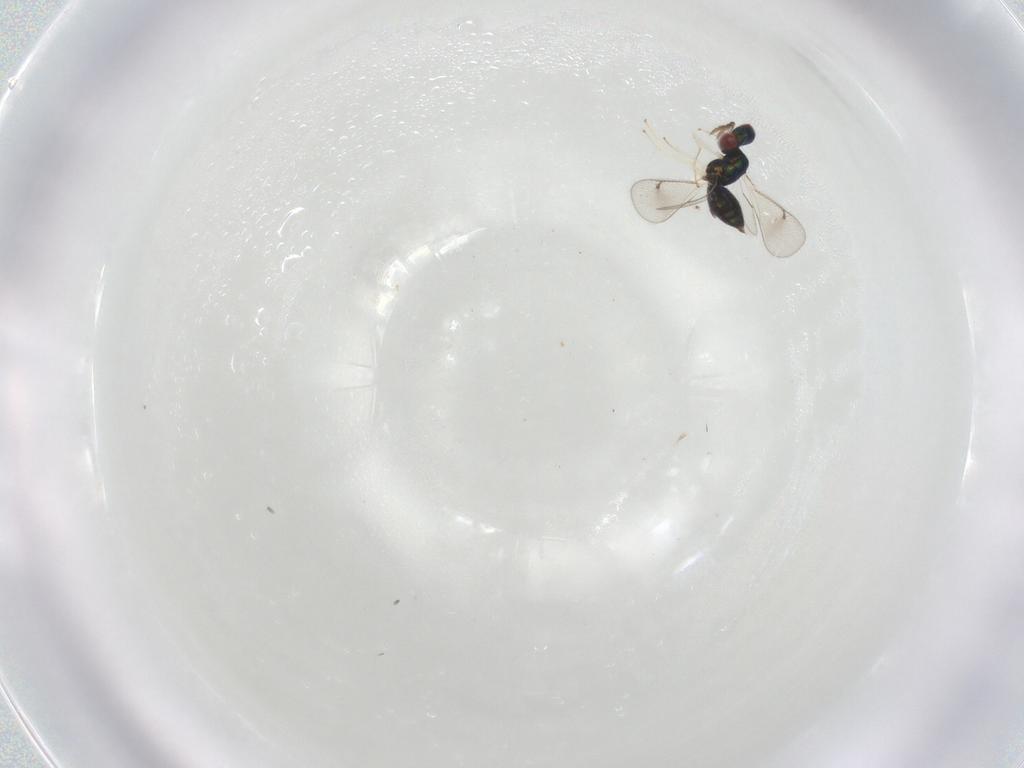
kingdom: Animalia
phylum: Arthropoda
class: Insecta
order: Hymenoptera
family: Eulophidae
